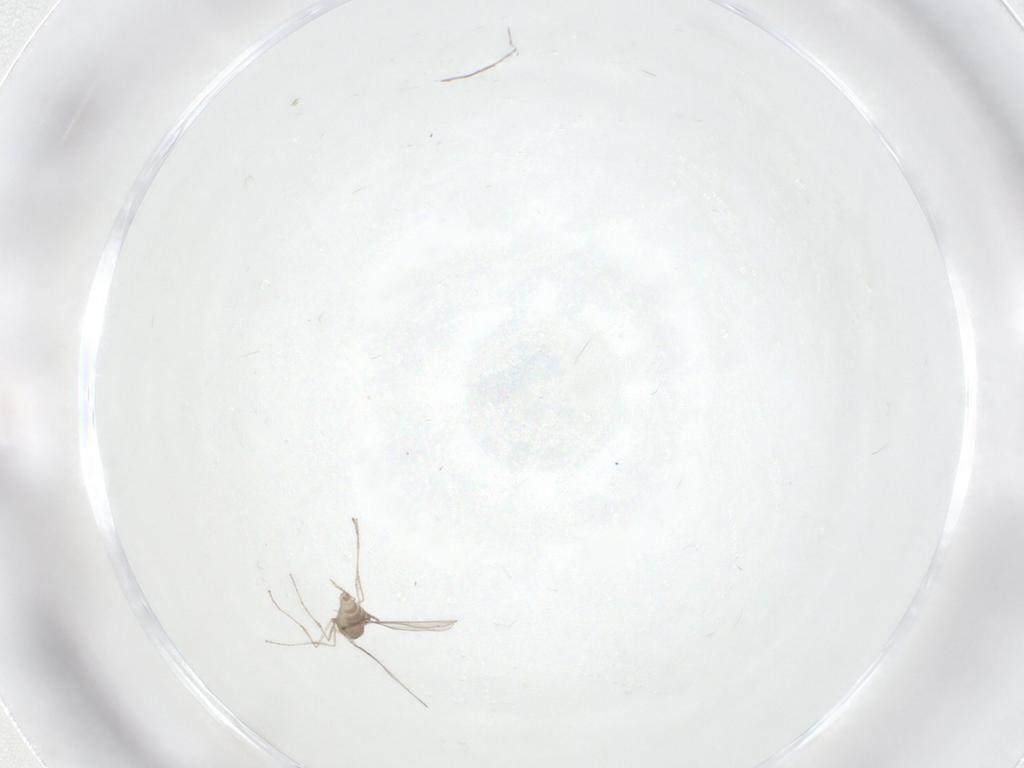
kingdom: Animalia
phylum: Arthropoda
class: Insecta
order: Diptera
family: Cecidomyiidae
